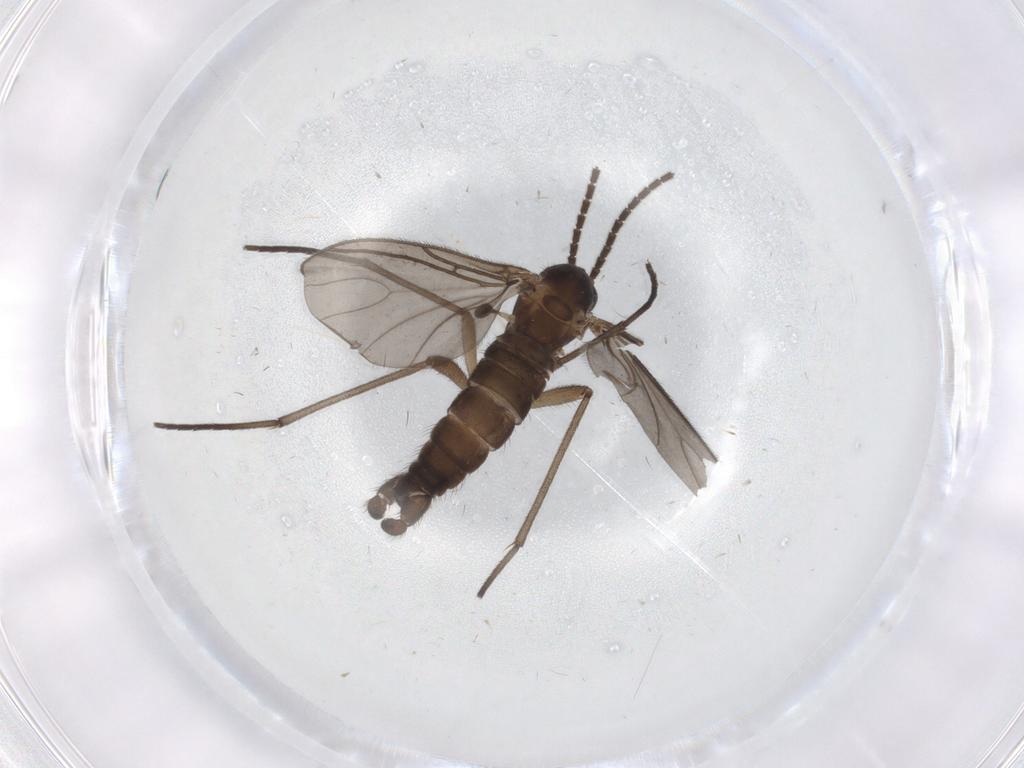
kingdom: Animalia
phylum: Arthropoda
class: Insecta
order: Diptera
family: Sciaridae
